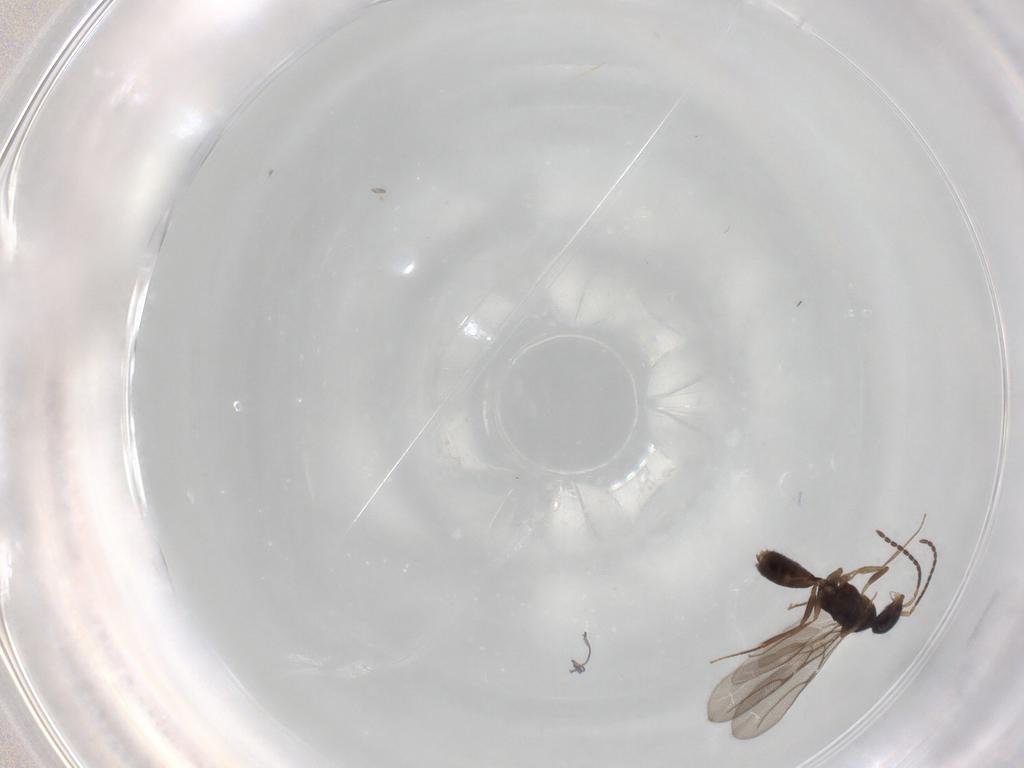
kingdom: Animalia
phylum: Arthropoda
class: Insecta
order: Hymenoptera
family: Bethylidae
